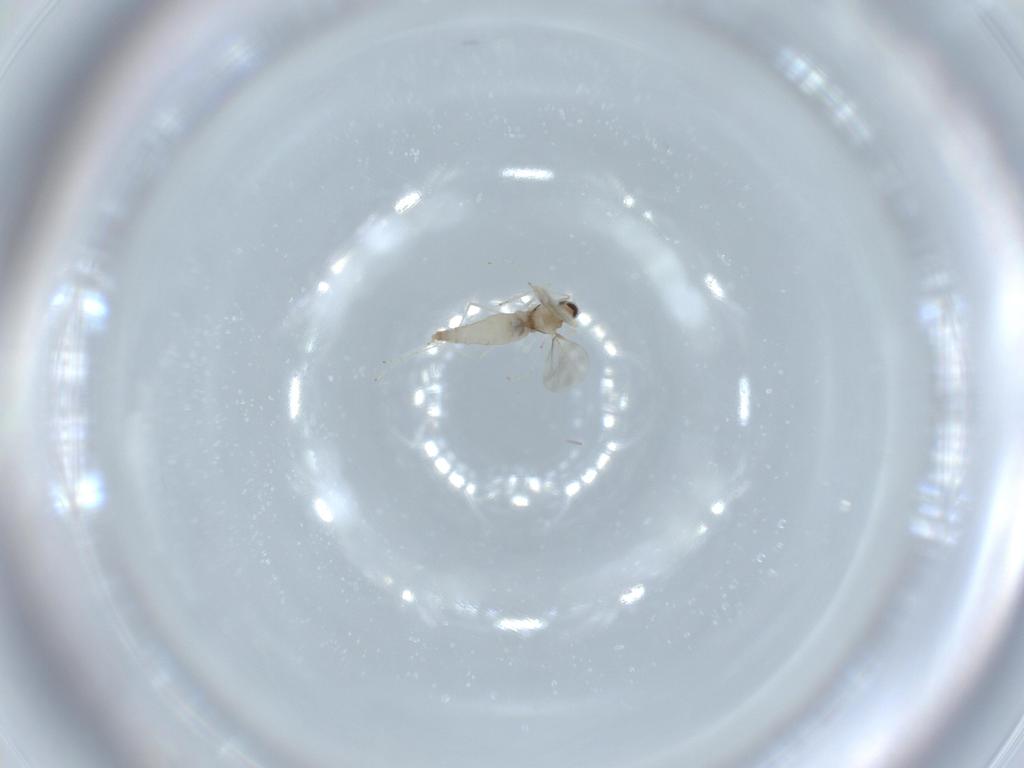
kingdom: Animalia
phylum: Arthropoda
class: Insecta
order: Diptera
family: Cecidomyiidae
